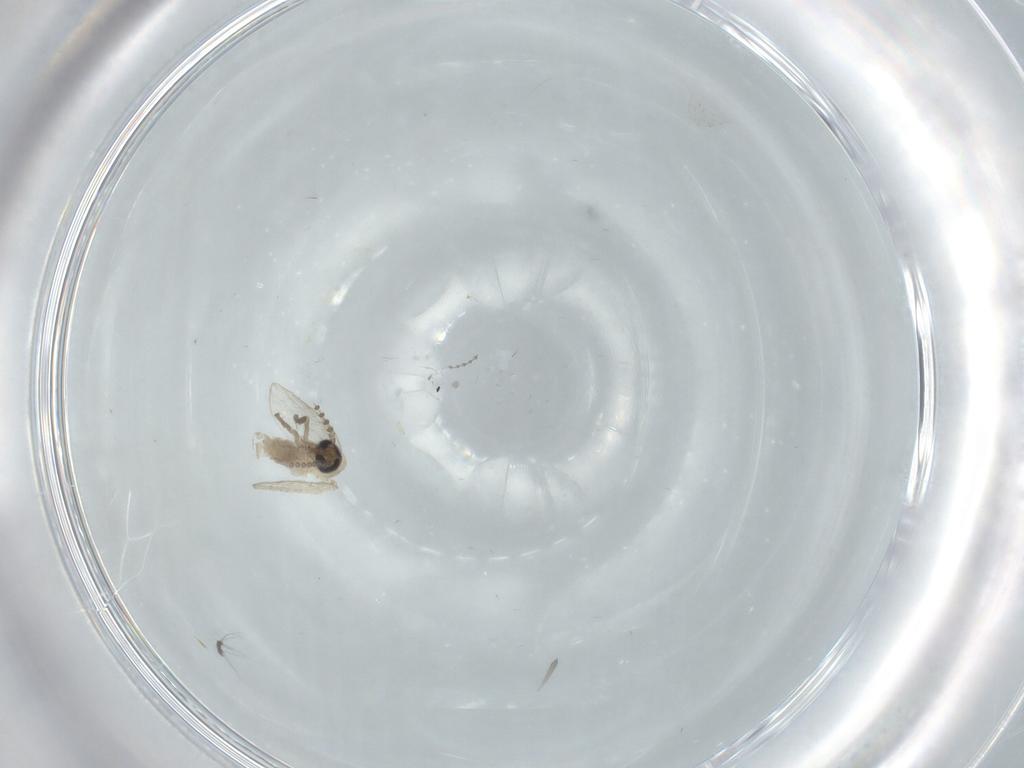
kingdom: Animalia
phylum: Arthropoda
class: Insecta
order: Diptera
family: Psychodidae
